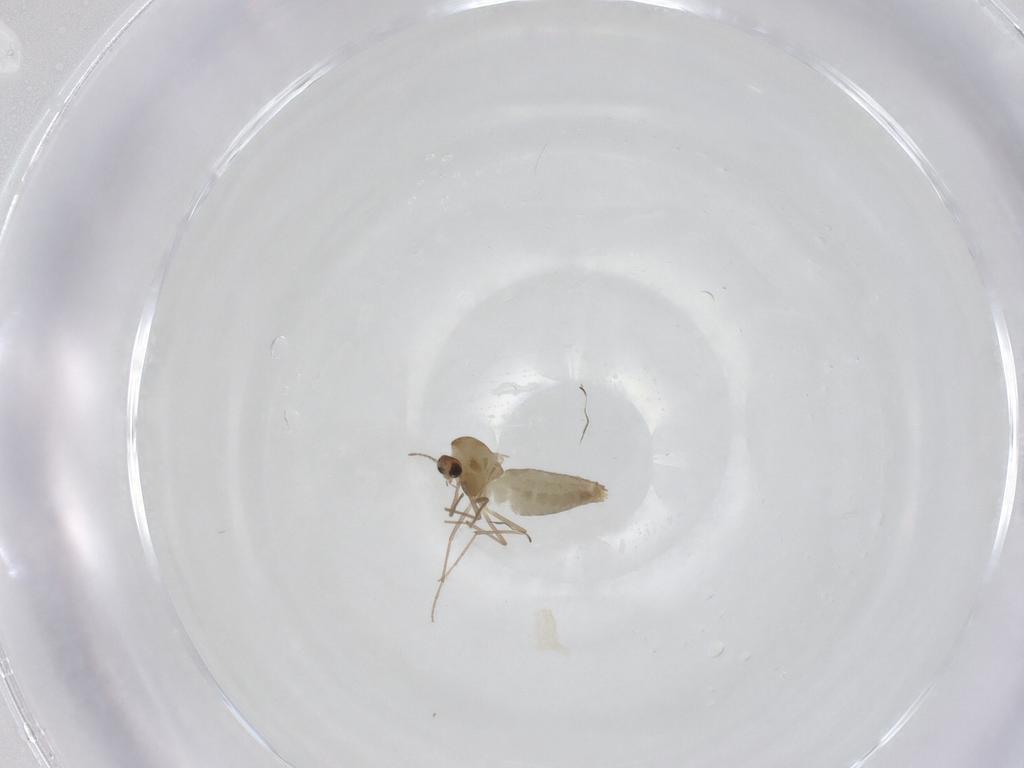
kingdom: Animalia
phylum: Arthropoda
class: Insecta
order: Diptera
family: Chironomidae
